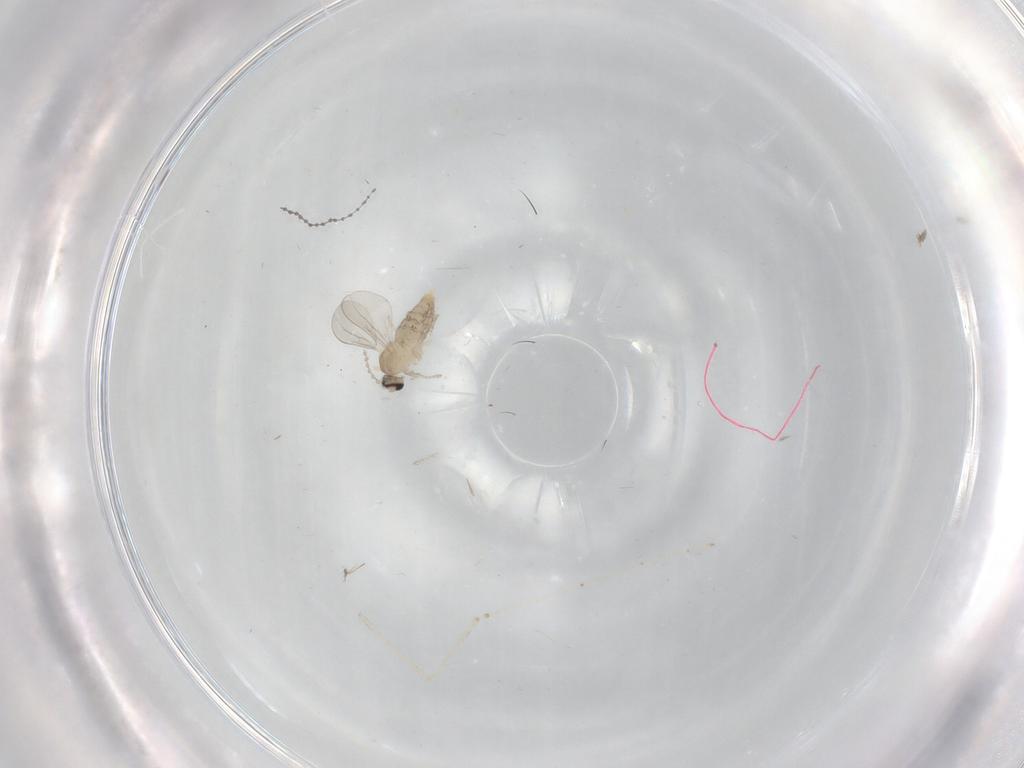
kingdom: Animalia
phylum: Arthropoda
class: Insecta
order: Diptera
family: Cecidomyiidae
